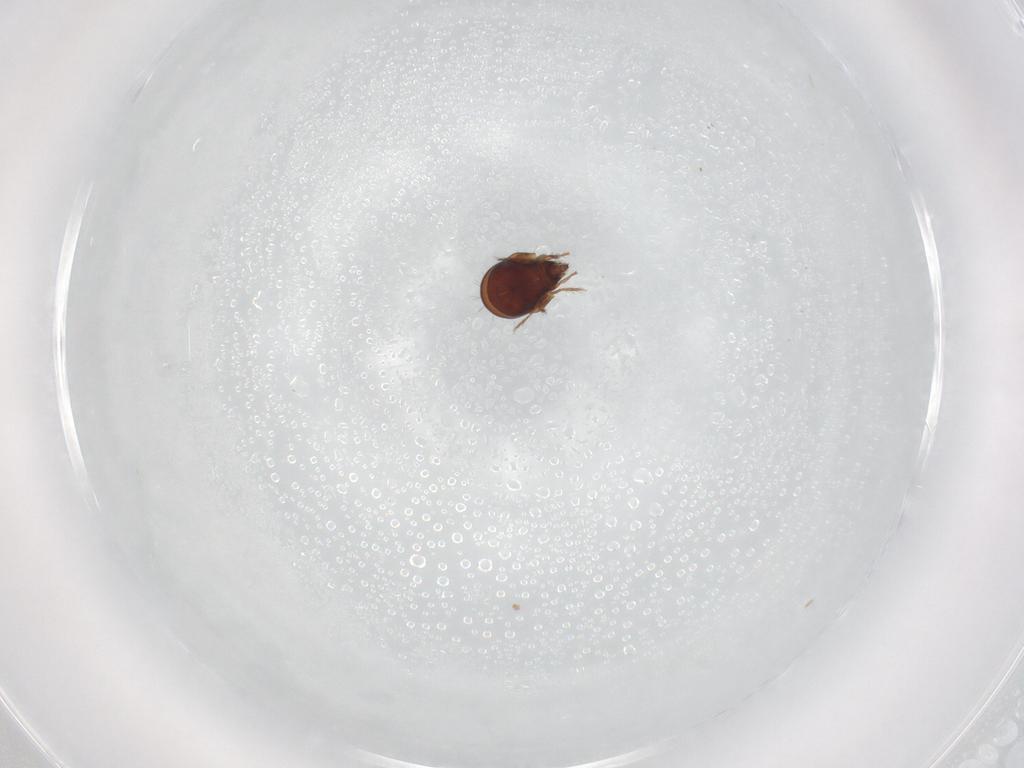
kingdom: Animalia
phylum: Arthropoda
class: Arachnida
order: Sarcoptiformes
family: Humerobatidae
